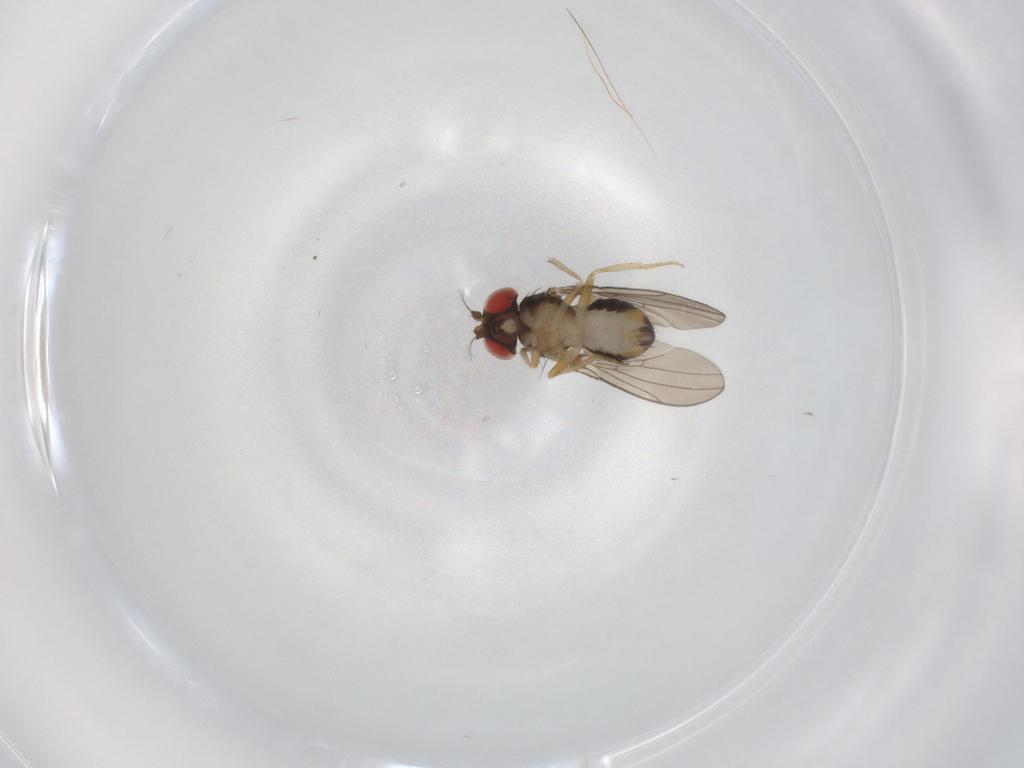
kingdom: Animalia
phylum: Arthropoda
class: Insecta
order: Diptera
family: Drosophilidae
